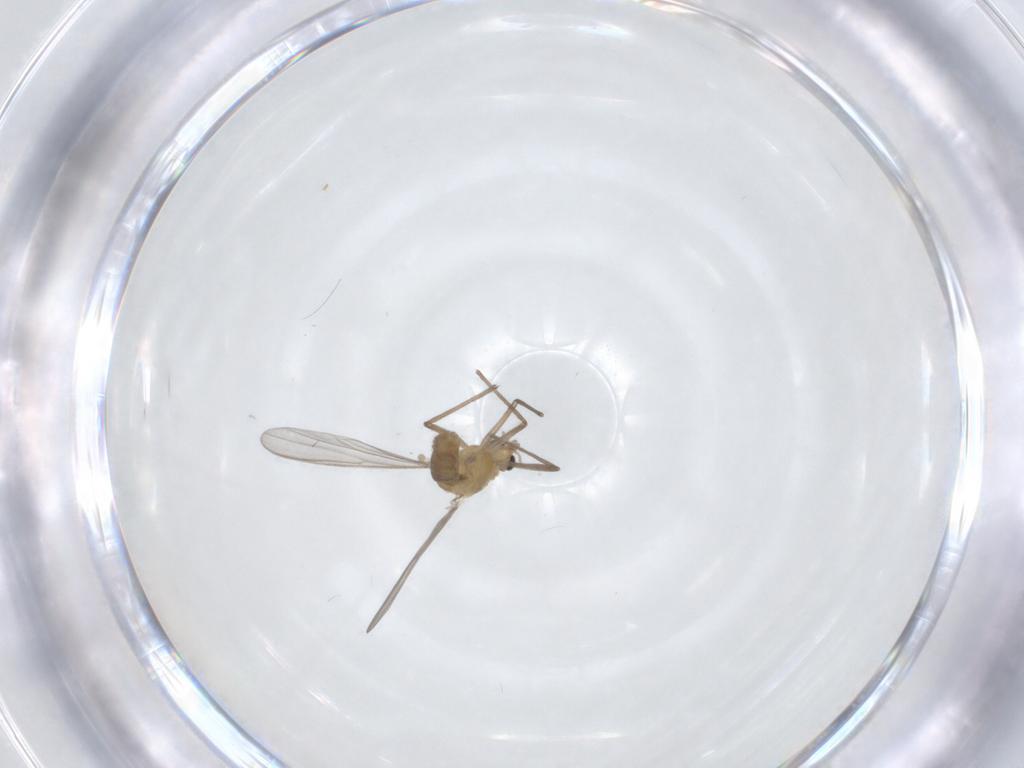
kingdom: Animalia
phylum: Arthropoda
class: Insecta
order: Diptera
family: Chironomidae
